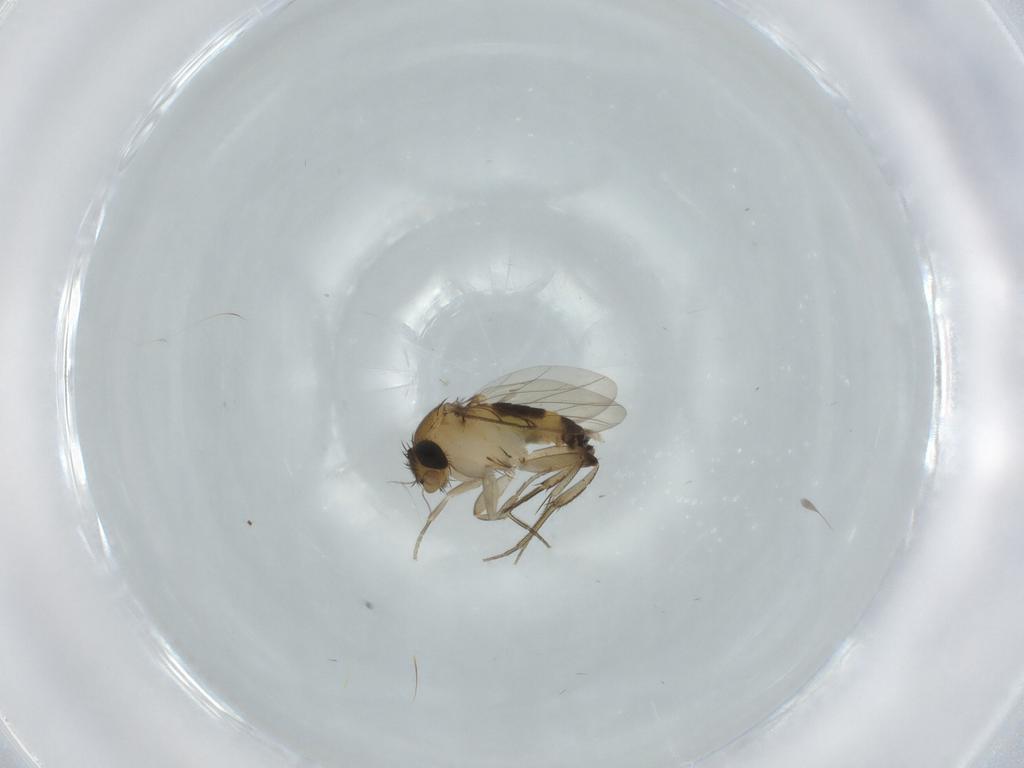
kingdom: Animalia
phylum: Arthropoda
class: Insecta
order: Diptera
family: Phoridae
